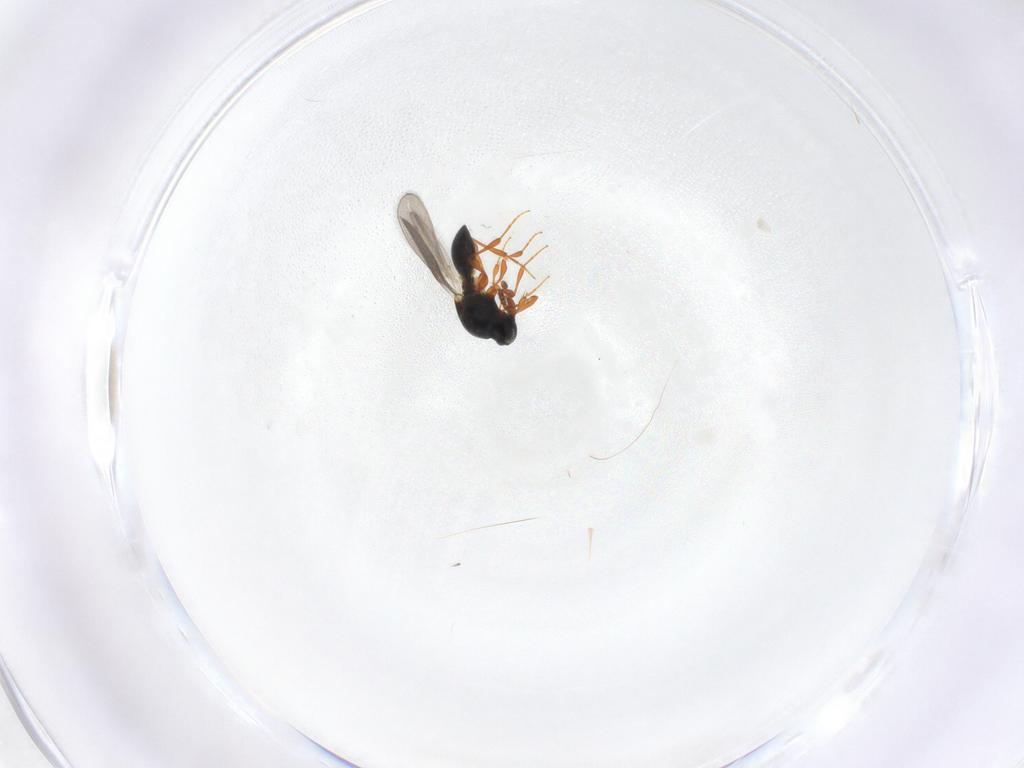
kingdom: Animalia
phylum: Arthropoda
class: Insecta
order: Hymenoptera
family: Platygastridae
